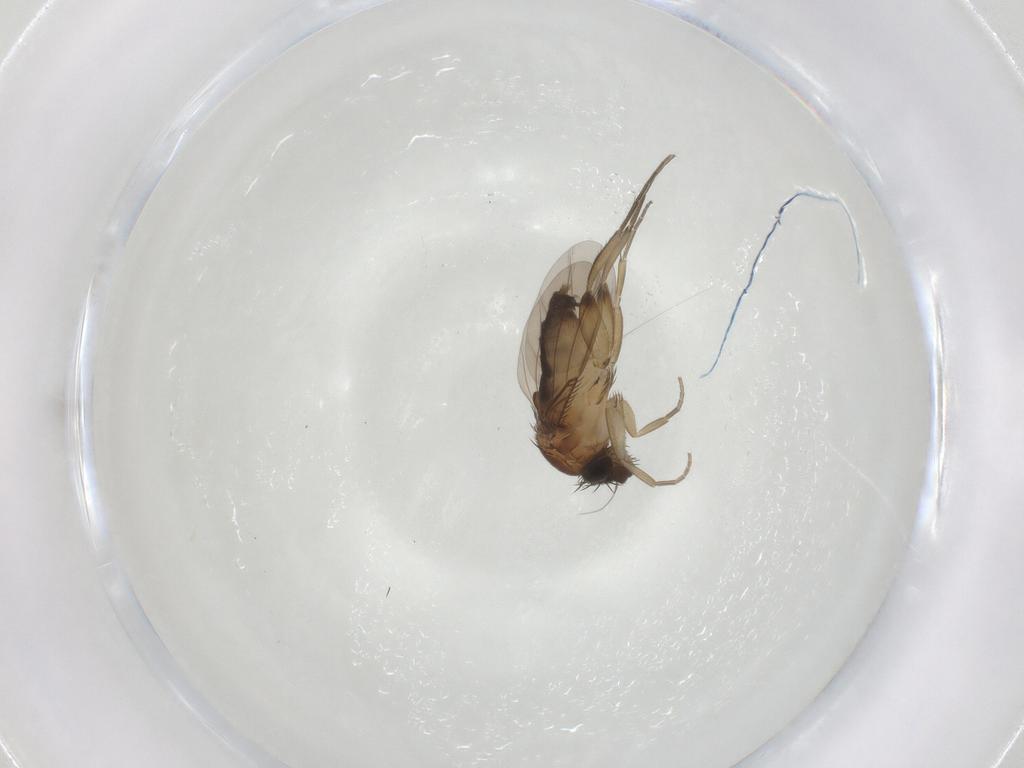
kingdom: Animalia
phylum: Arthropoda
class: Insecta
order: Diptera
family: Phoridae
